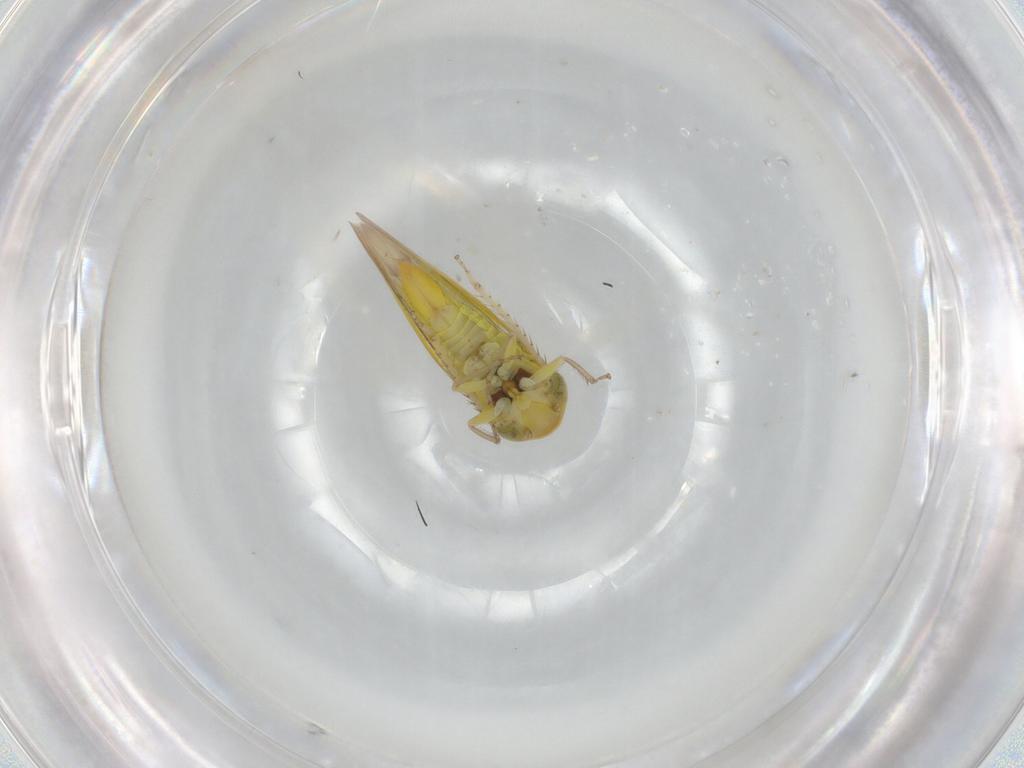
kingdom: Animalia
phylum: Arthropoda
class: Insecta
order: Hemiptera
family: Cicadellidae
